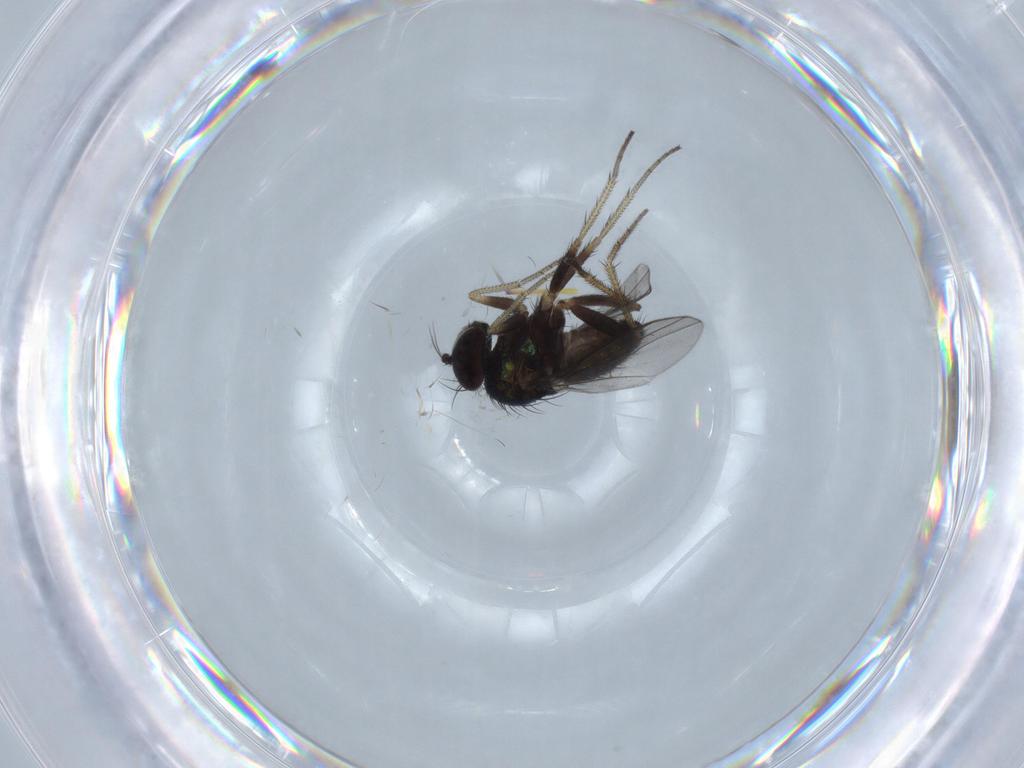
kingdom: Animalia
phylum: Arthropoda
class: Insecta
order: Diptera
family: Dolichopodidae
